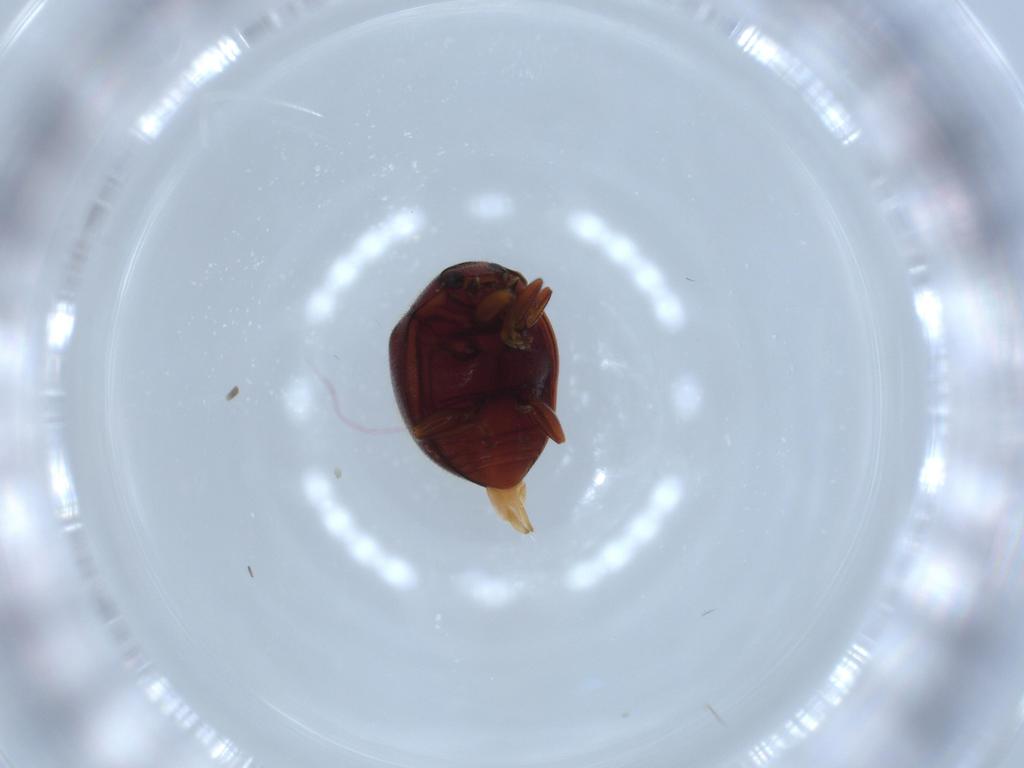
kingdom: Animalia
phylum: Arthropoda
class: Insecta
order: Coleoptera
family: Coccinellidae
